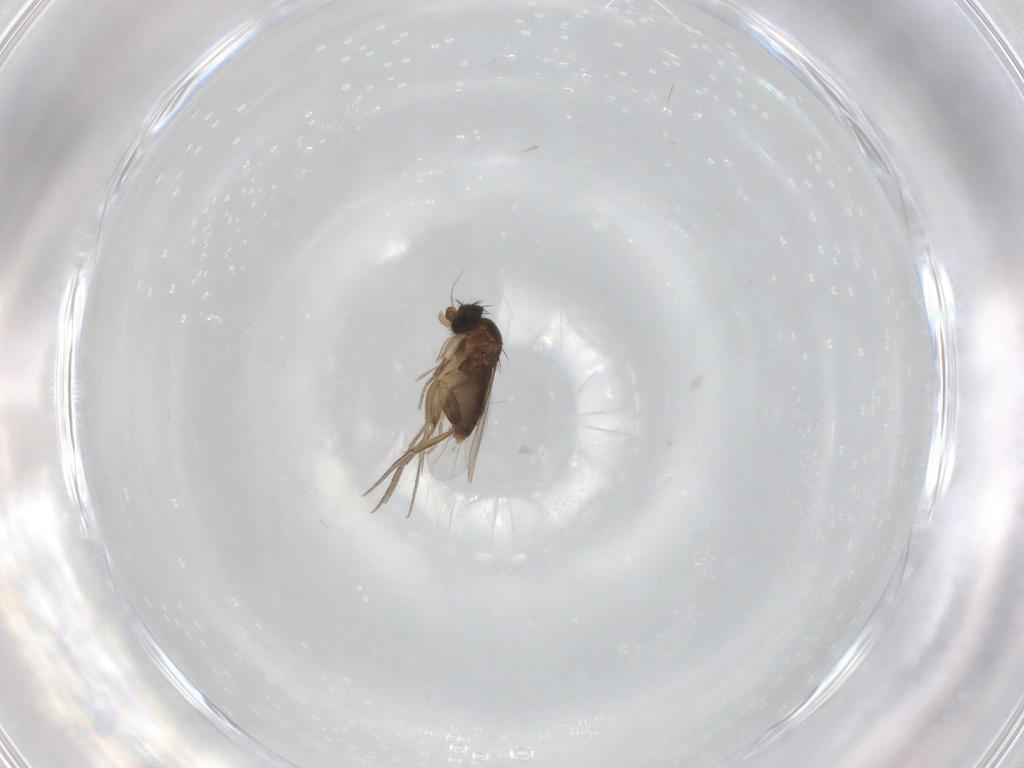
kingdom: Animalia
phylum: Arthropoda
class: Insecta
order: Diptera
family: Phoridae
